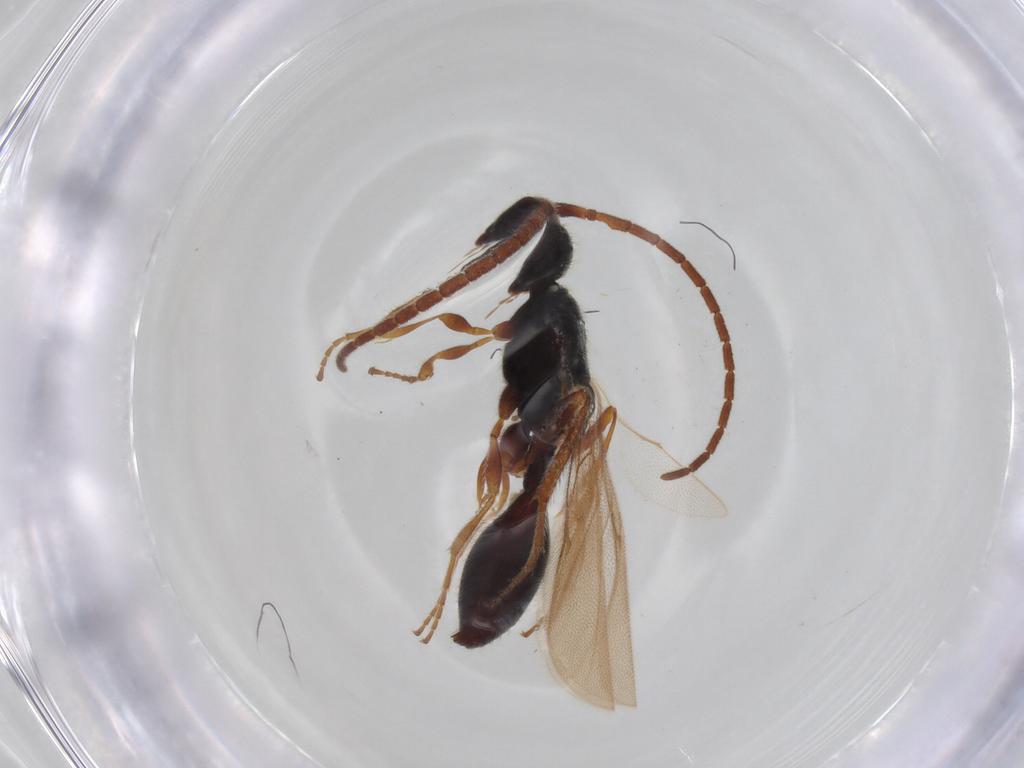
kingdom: Animalia
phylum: Arthropoda
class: Insecta
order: Hymenoptera
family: Diapriidae
